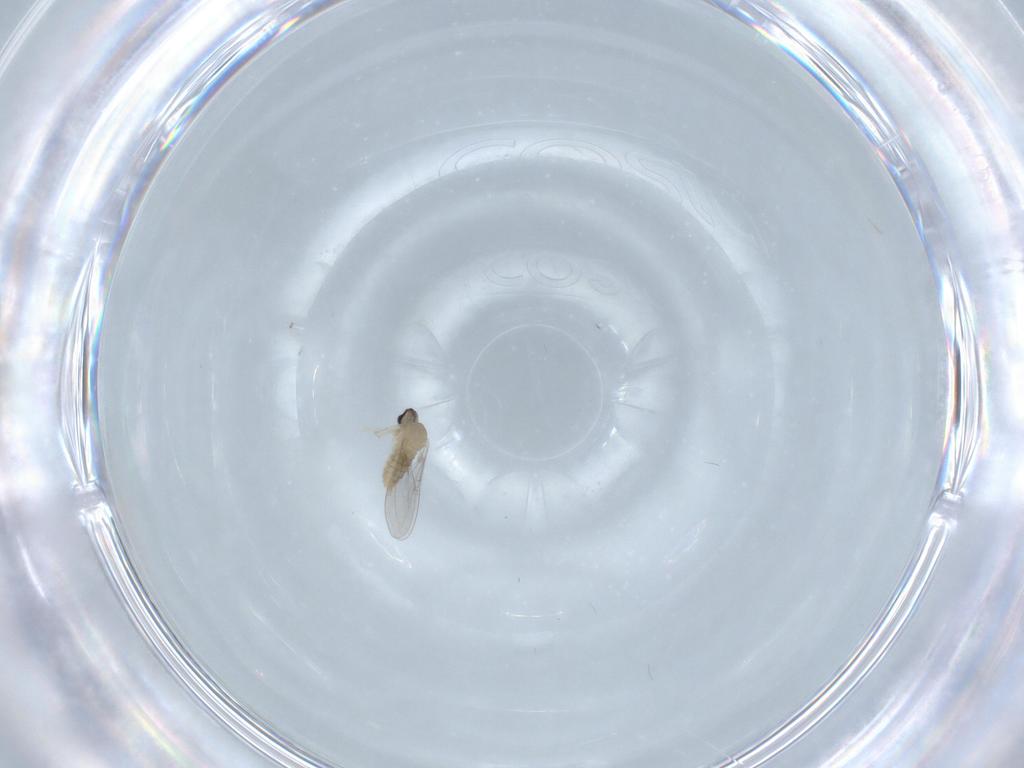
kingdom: Animalia
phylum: Arthropoda
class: Insecta
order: Diptera
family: Cecidomyiidae
